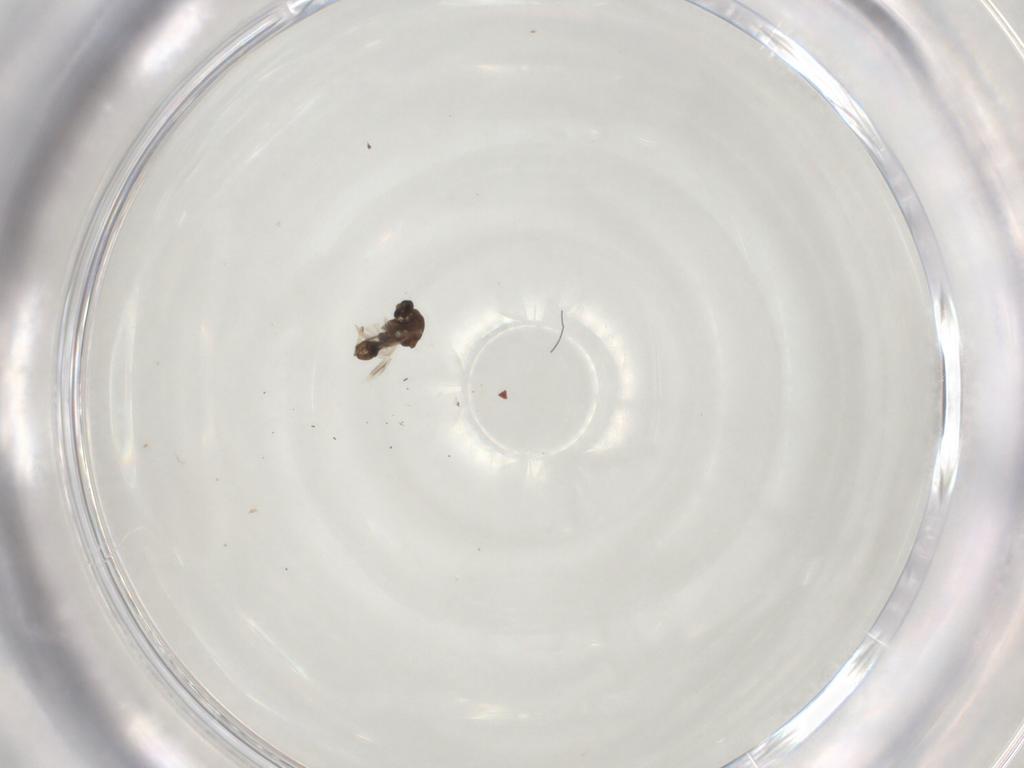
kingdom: Animalia
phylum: Arthropoda
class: Insecta
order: Diptera
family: Ceratopogonidae
